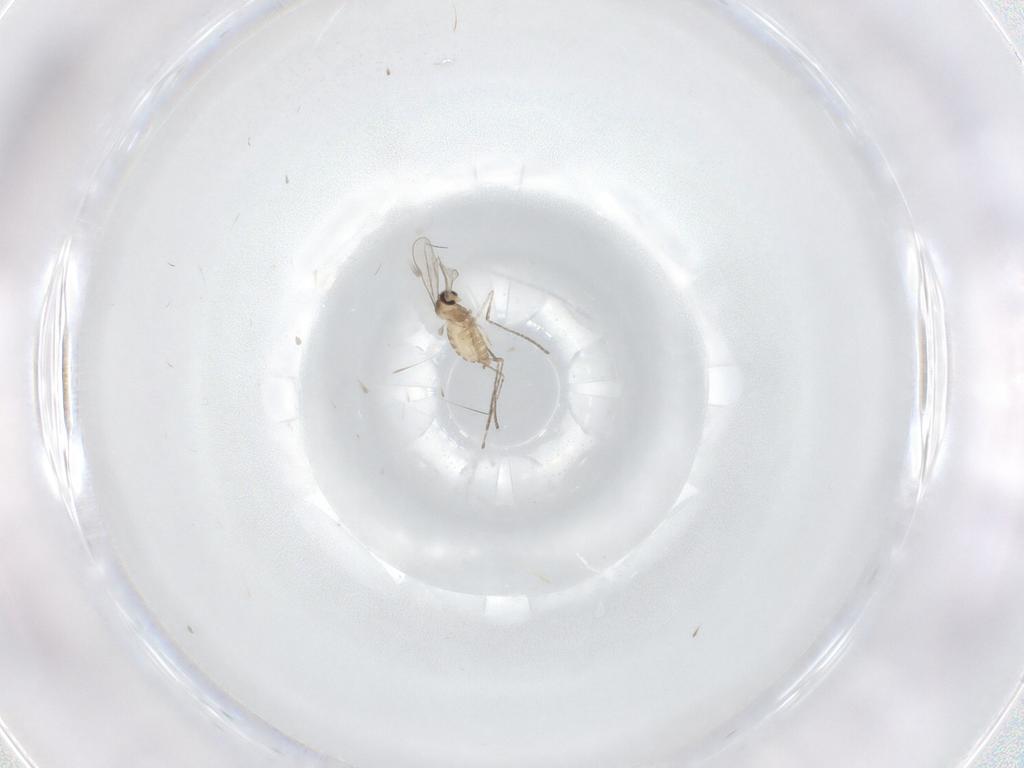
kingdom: Animalia
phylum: Arthropoda
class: Insecta
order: Diptera
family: Cecidomyiidae
